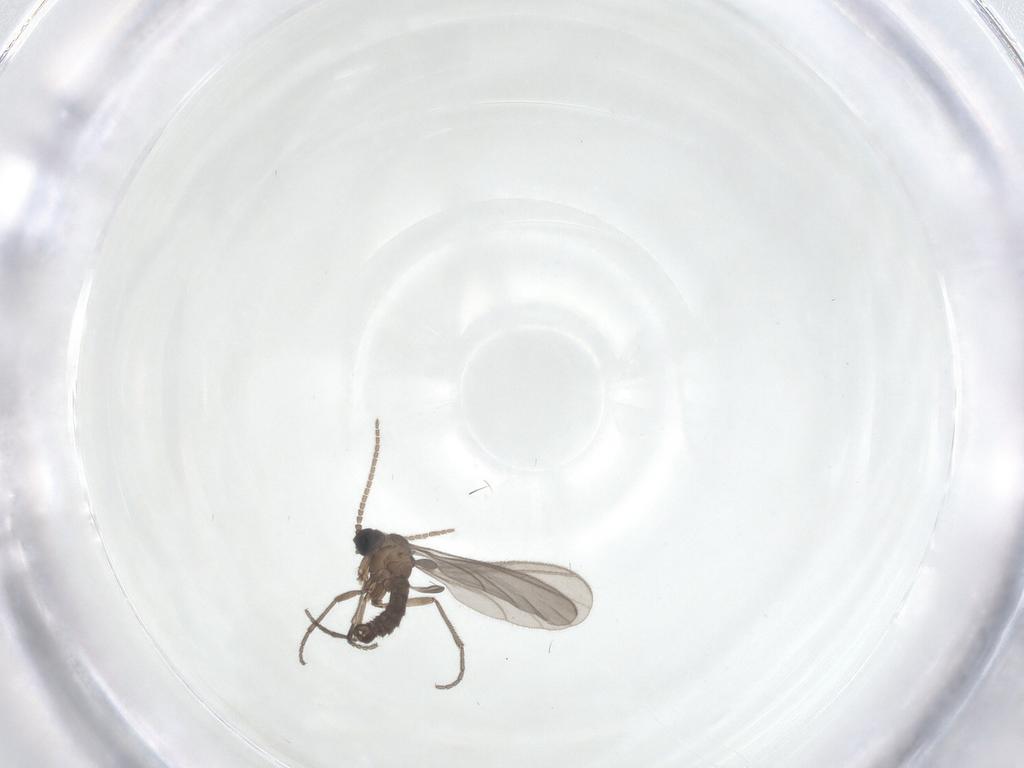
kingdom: Animalia
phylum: Arthropoda
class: Insecta
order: Diptera
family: Sciaridae
